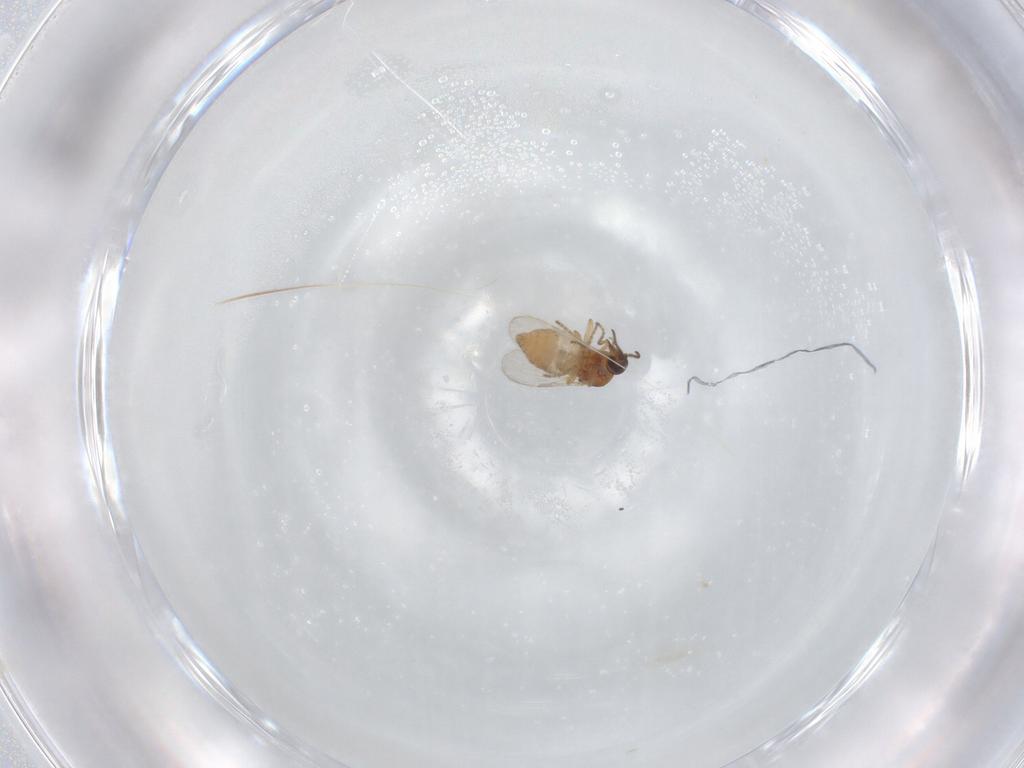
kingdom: Animalia
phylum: Arthropoda
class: Insecta
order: Diptera
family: Ceratopogonidae
